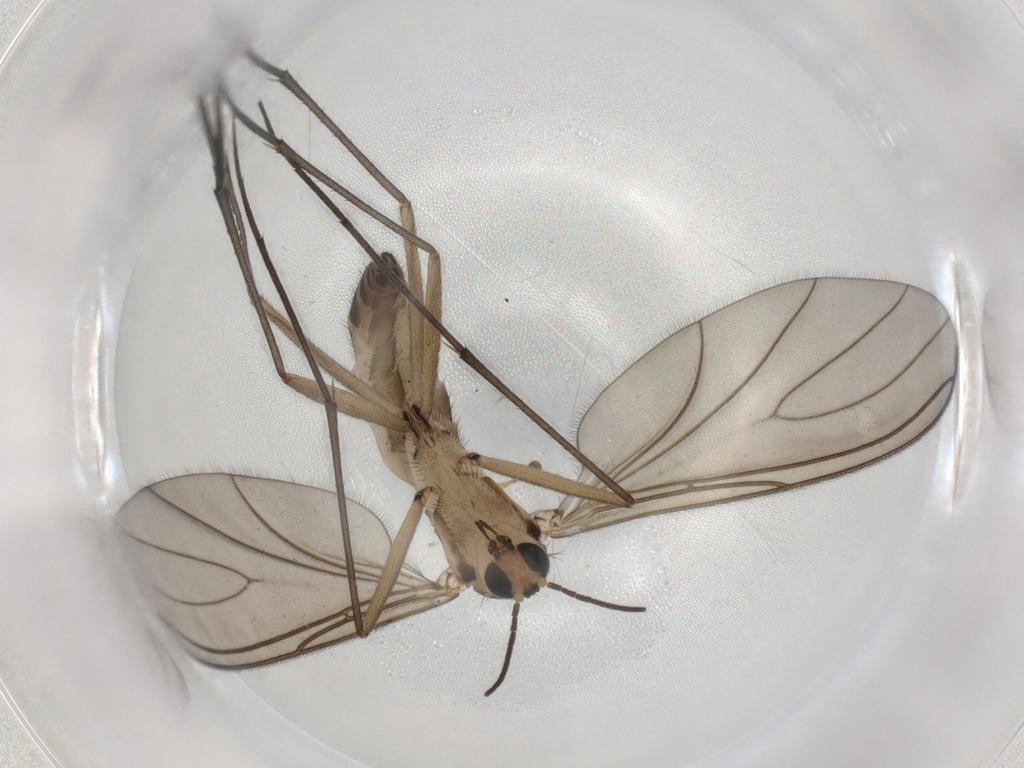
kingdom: Animalia
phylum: Arthropoda
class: Insecta
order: Diptera
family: Sciaridae
